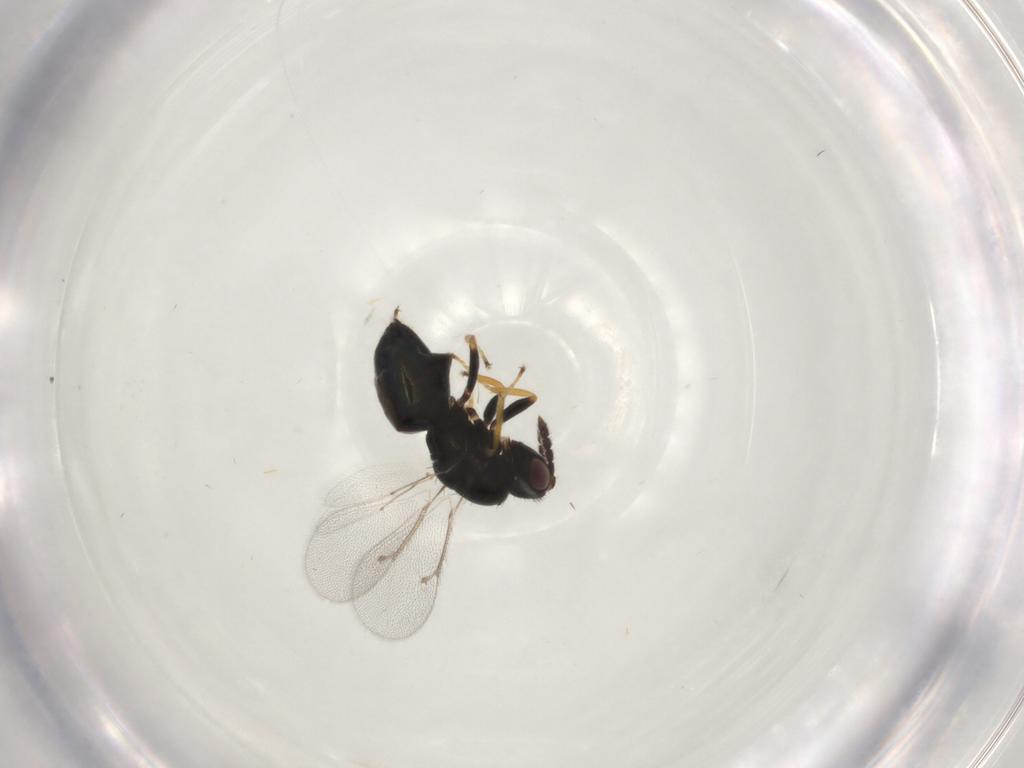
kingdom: Animalia
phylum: Arthropoda
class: Insecta
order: Hymenoptera
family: Eulophidae
